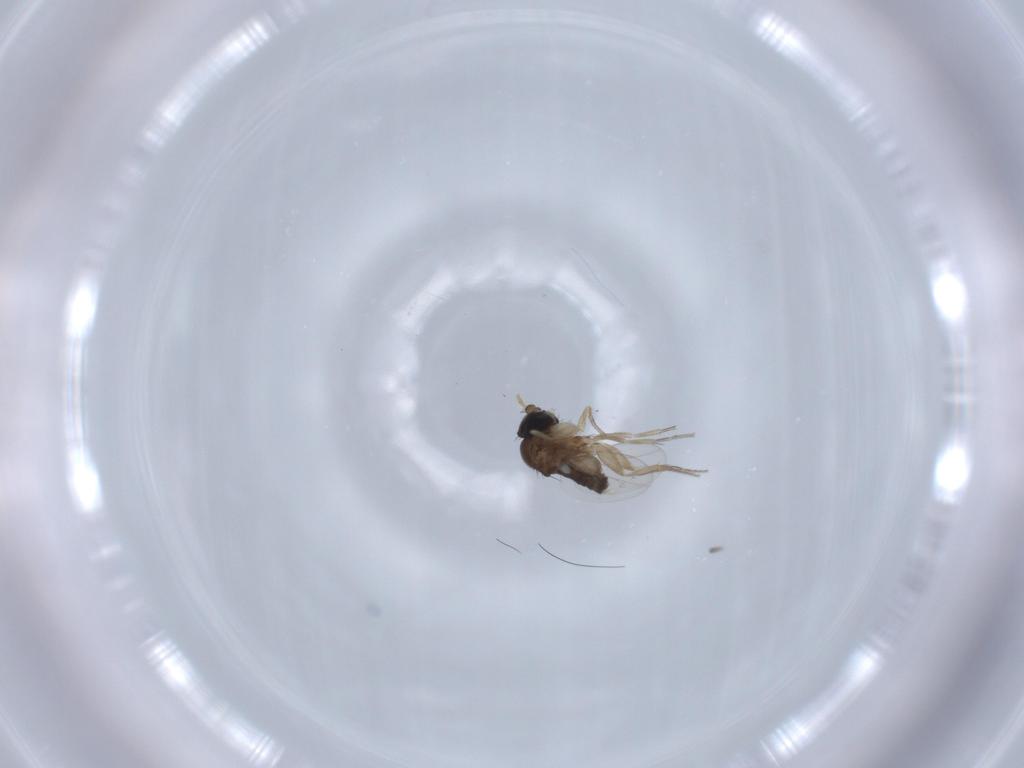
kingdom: Animalia
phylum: Arthropoda
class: Insecta
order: Diptera
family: Phoridae
